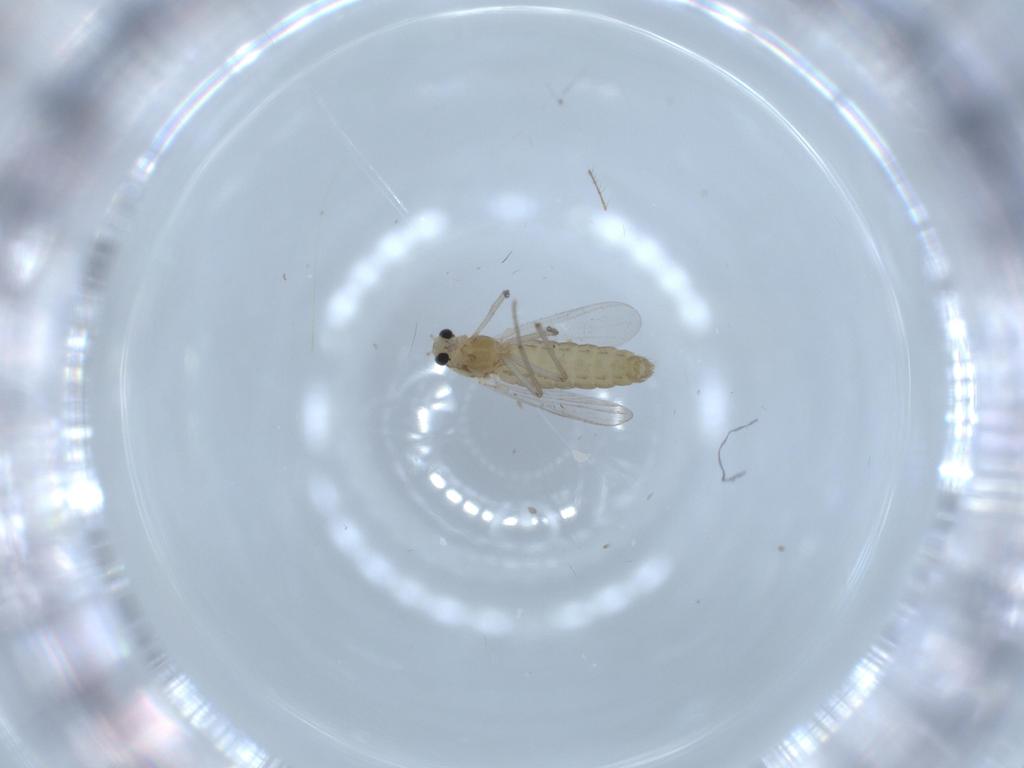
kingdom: Animalia
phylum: Arthropoda
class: Insecta
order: Diptera
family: Chironomidae
